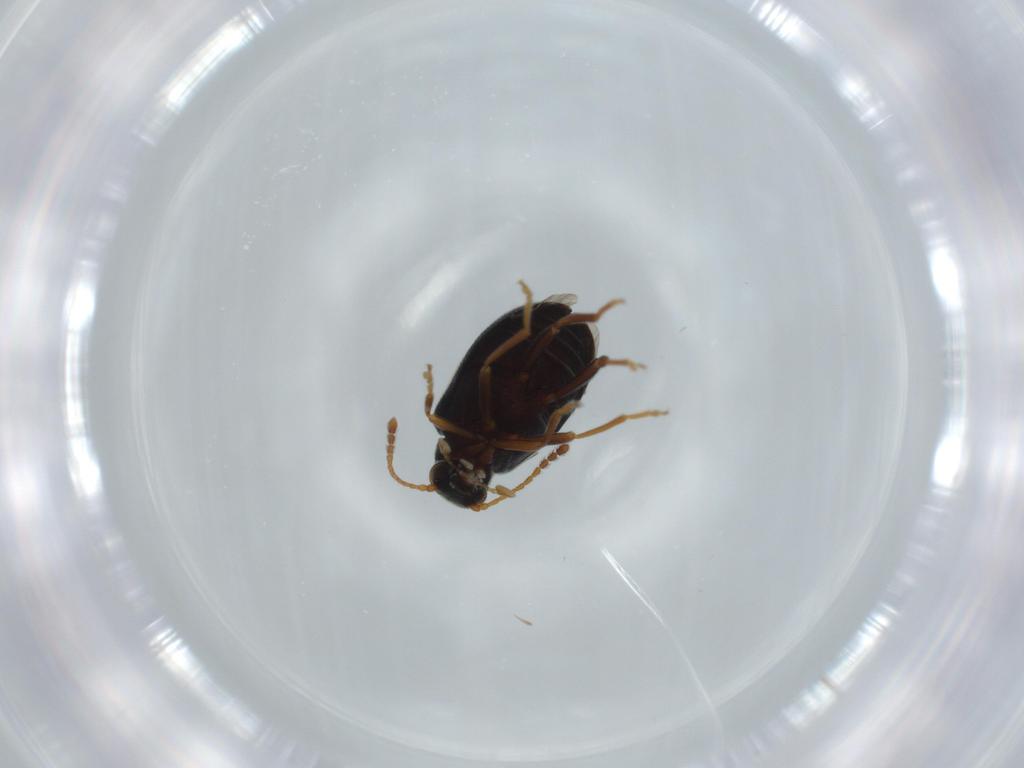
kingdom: Animalia
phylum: Arthropoda
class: Insecta
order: Coleoptera
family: Aderidae
